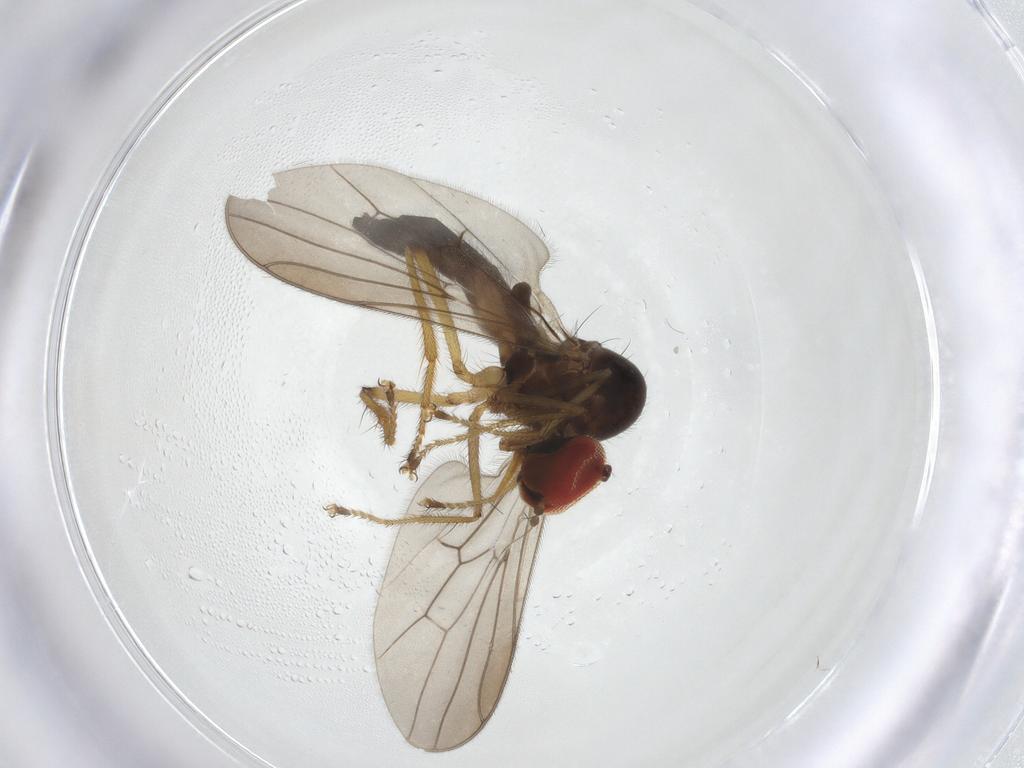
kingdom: Animalia
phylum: Arthropoda
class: Insecta
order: Diptera
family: Hybotidae
